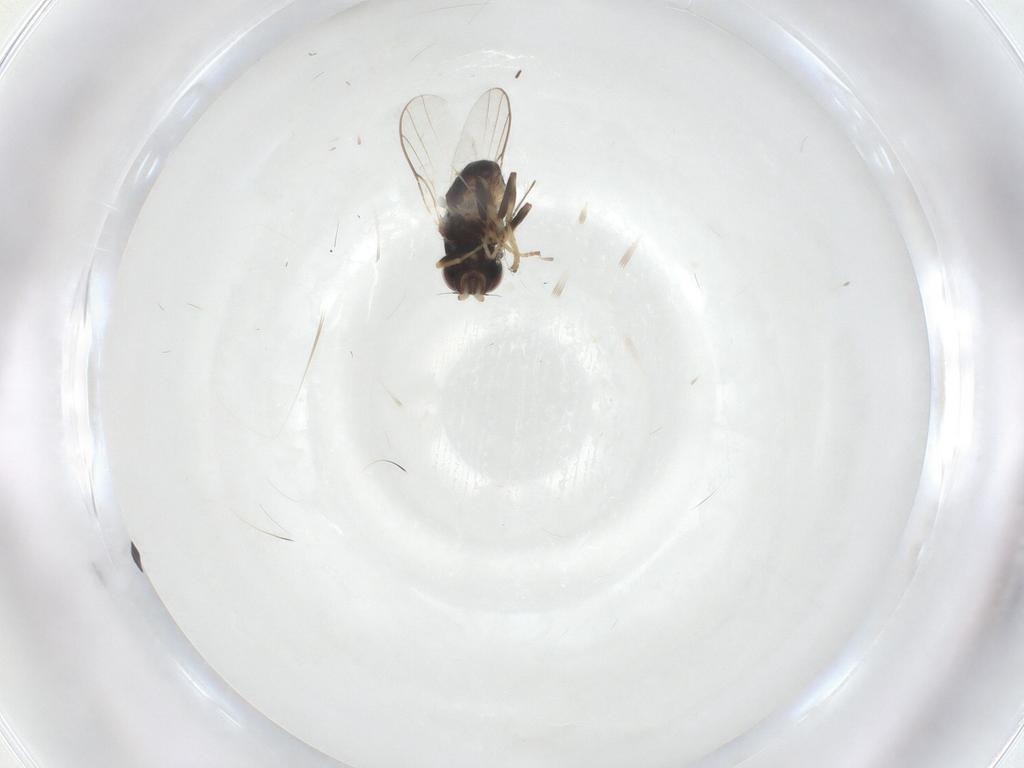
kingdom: Animalia
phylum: Arthropoda
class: Insecta
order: Diptera
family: Chloropidae
